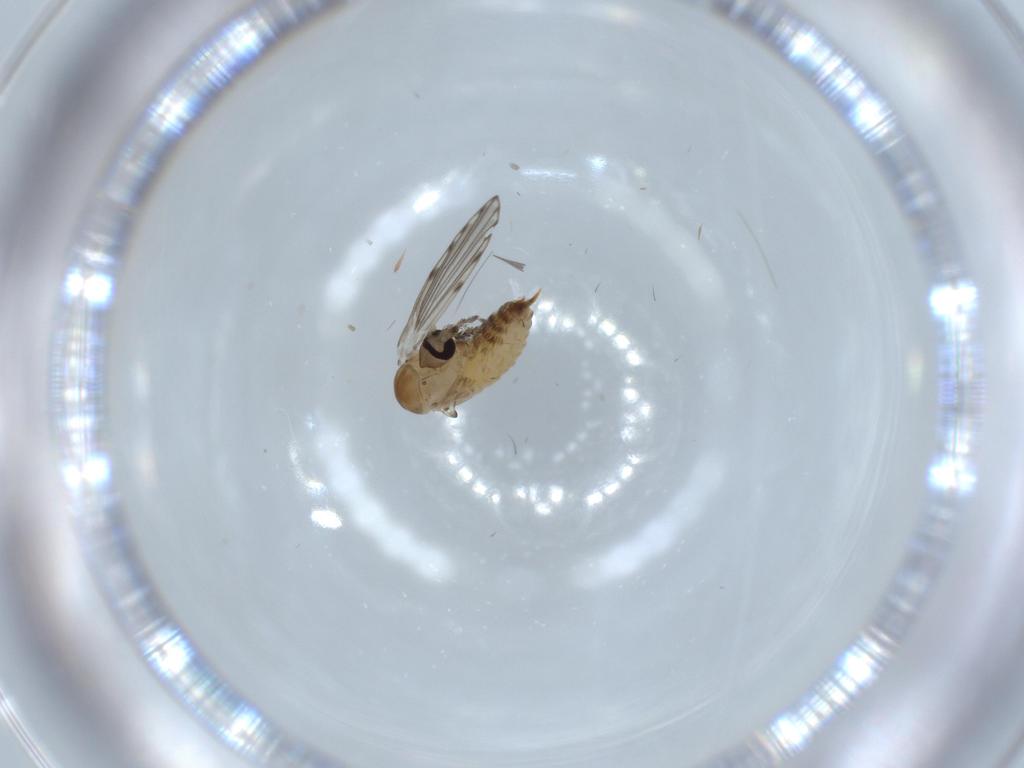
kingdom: Animalia
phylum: Arthropoda
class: Insecta
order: Diptera
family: Psychodidae
